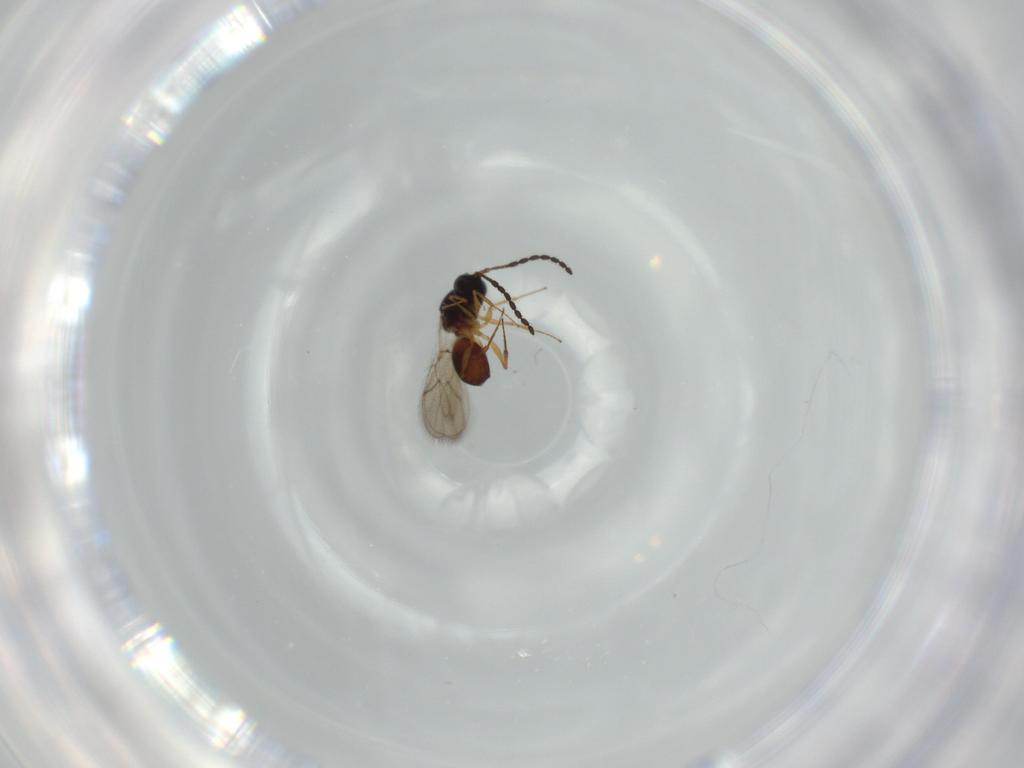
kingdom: Animalia
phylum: Arthropoda
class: Insecta
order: Hymenoptera
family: Figitidae
